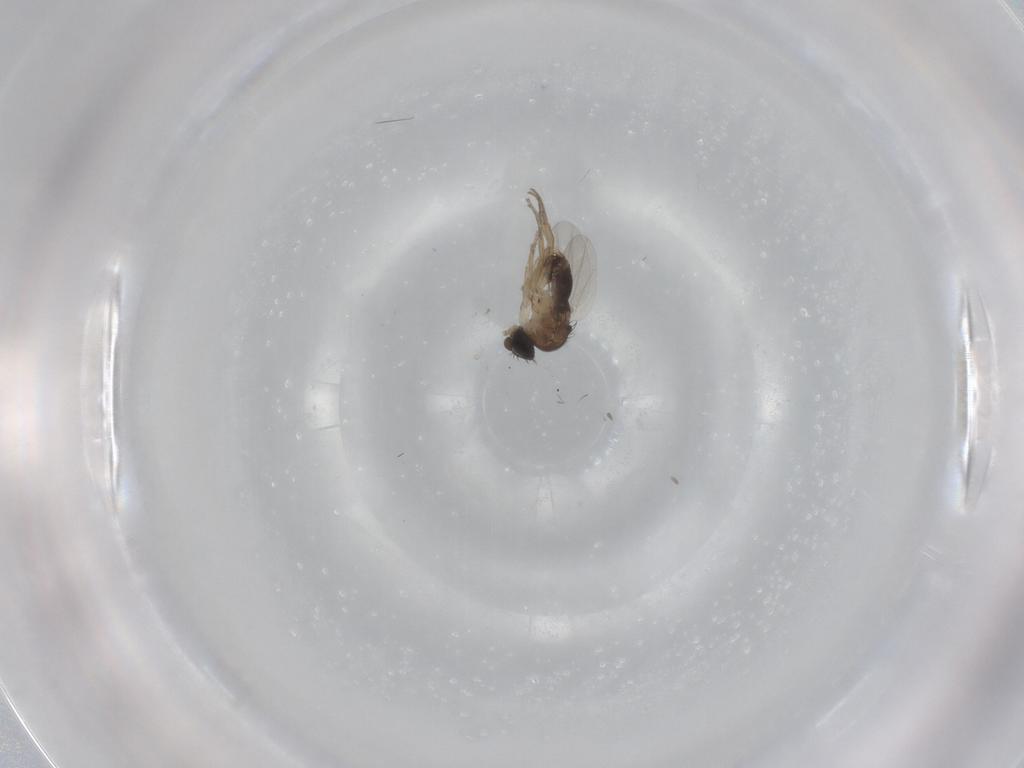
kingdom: Animalia
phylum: Arthropoda
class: Insecta
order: Diptera
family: Phoridae
